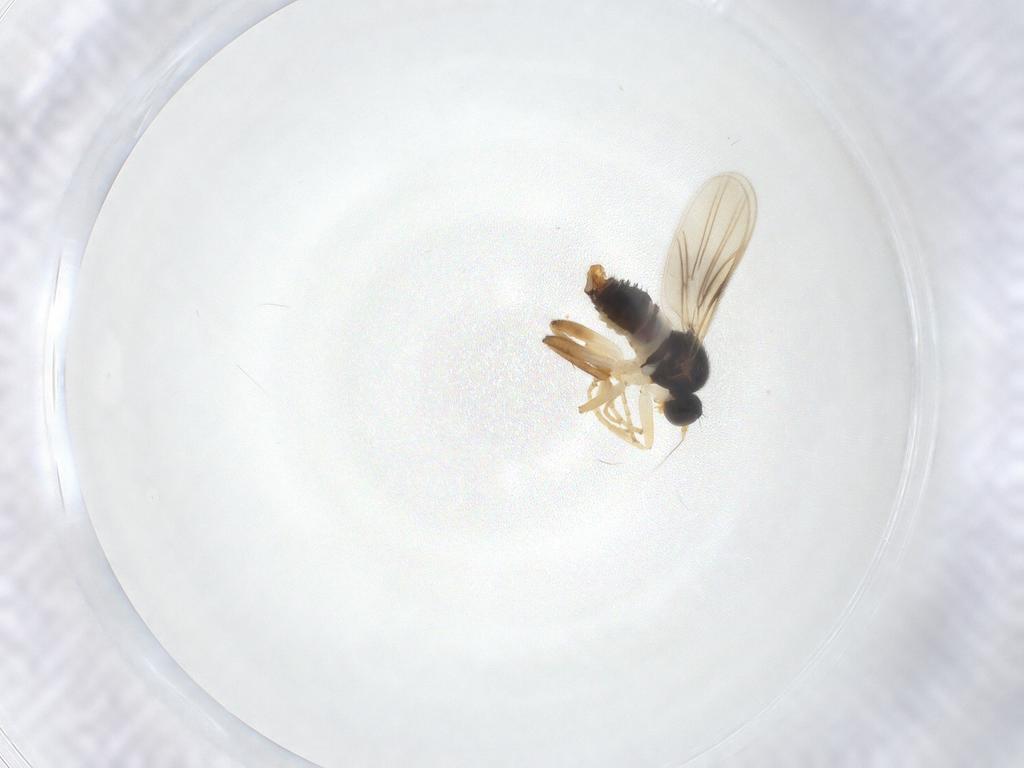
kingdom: Animalia
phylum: Arthropoda
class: Insecta
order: Diptera
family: Hybotidae
